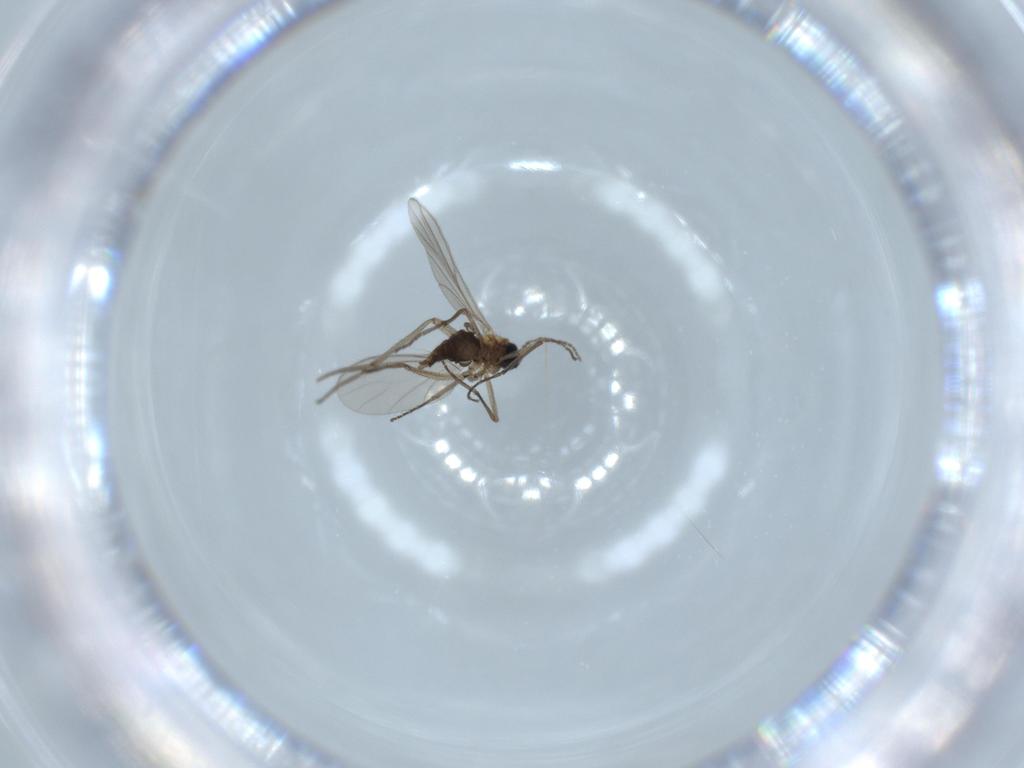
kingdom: Animalia
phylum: Arthropoda
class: Insecta
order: Diptera
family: Sciaridae
